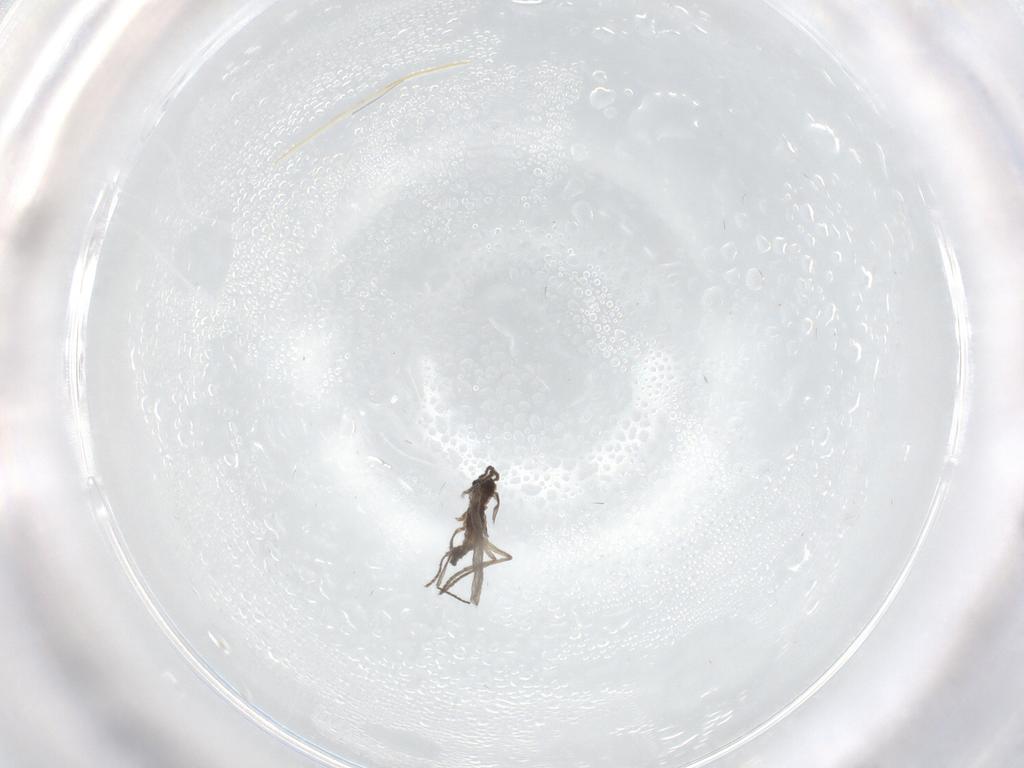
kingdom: Animalia
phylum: Arthropoda
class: Insecta
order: Diptera
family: Sciaridae
